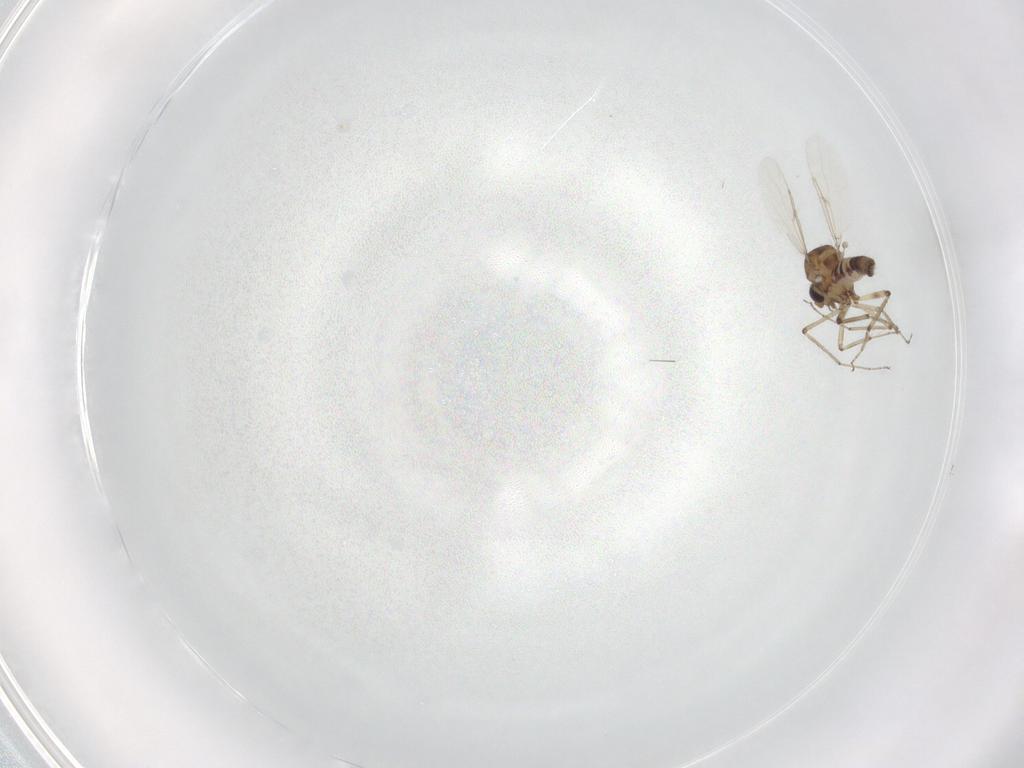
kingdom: Animalia
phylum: Arthropoda
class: Insecta
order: Diptera
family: Ceratopogonidae
